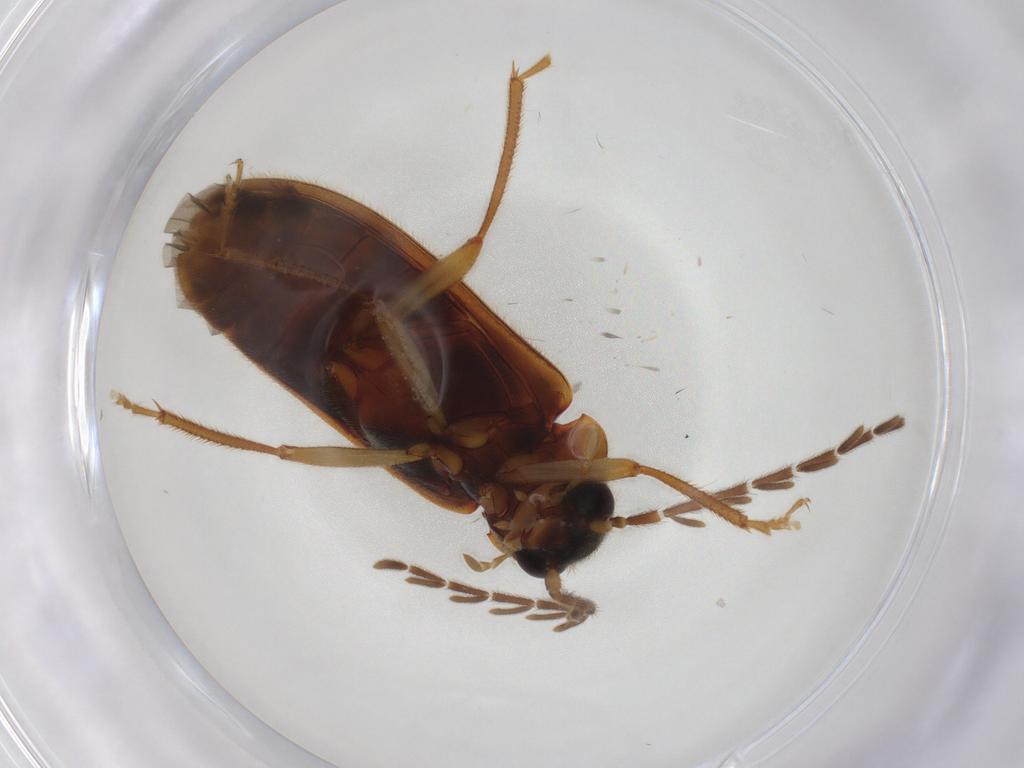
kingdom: Animalia
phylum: Arthropoda
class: Insecta
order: Coleoptera
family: Ptilodactylidae
